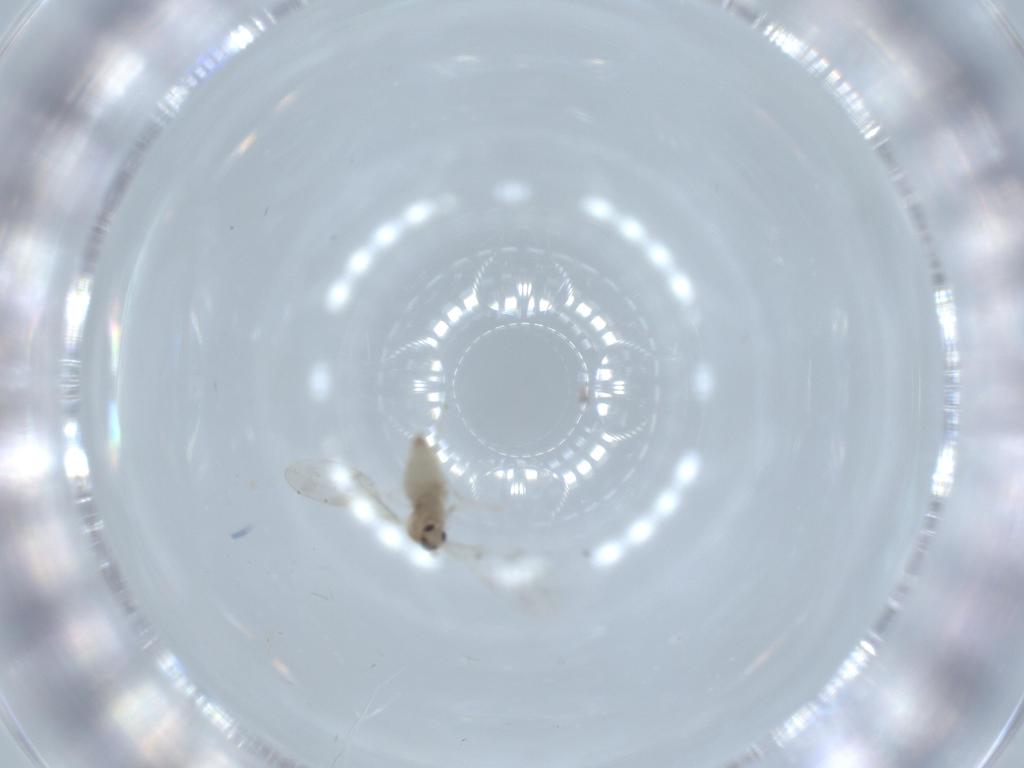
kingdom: Animalia
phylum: Arthropoda
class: Insecta
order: Diptera
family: Cecidomyiidae
